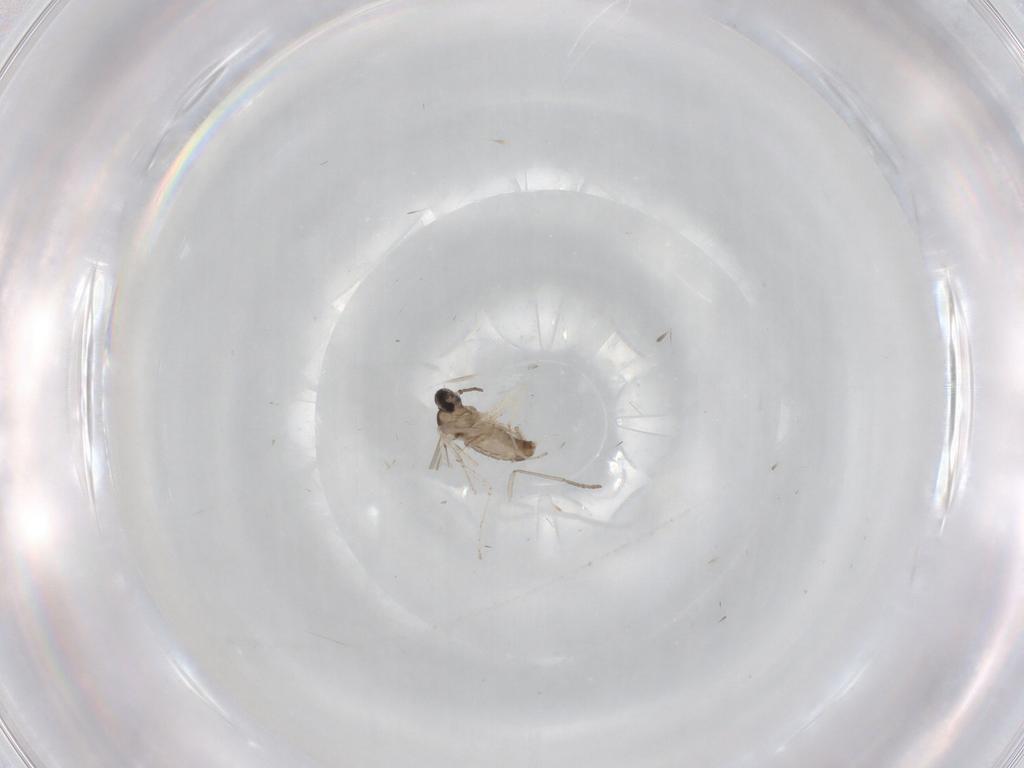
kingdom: Animalia
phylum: Arthropoda
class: Insecta
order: Diptera
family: Cecidomyiidae
